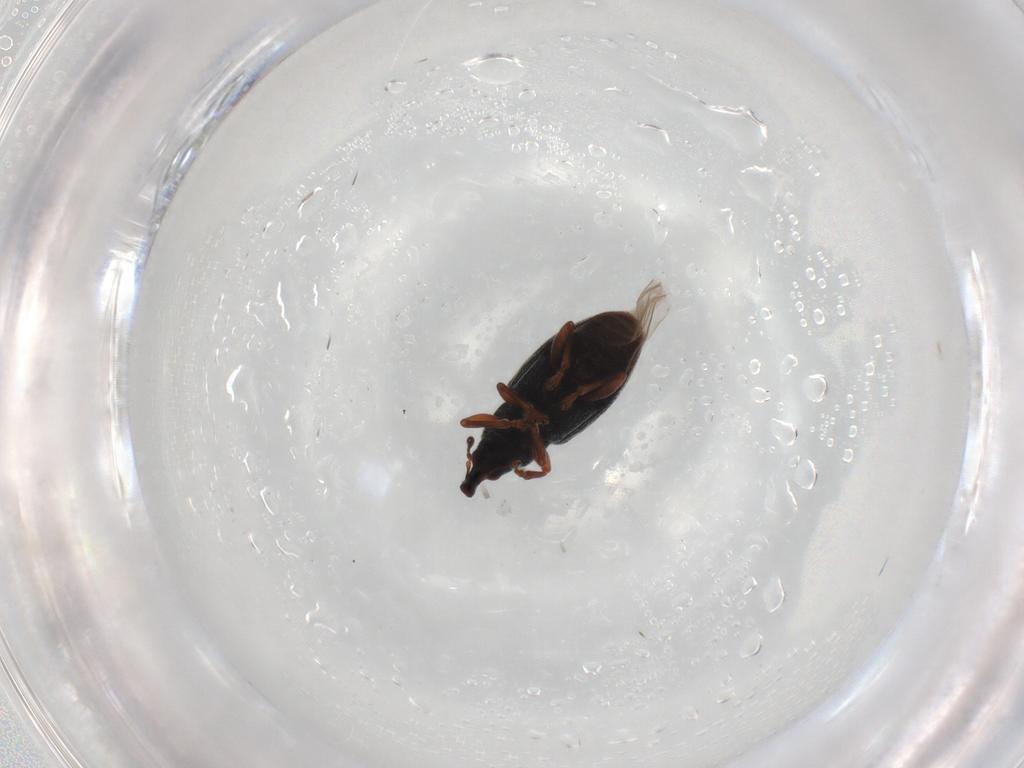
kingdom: Animalia
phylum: Arthropoda
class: Insecta
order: Coleoptera
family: Curculionidae
